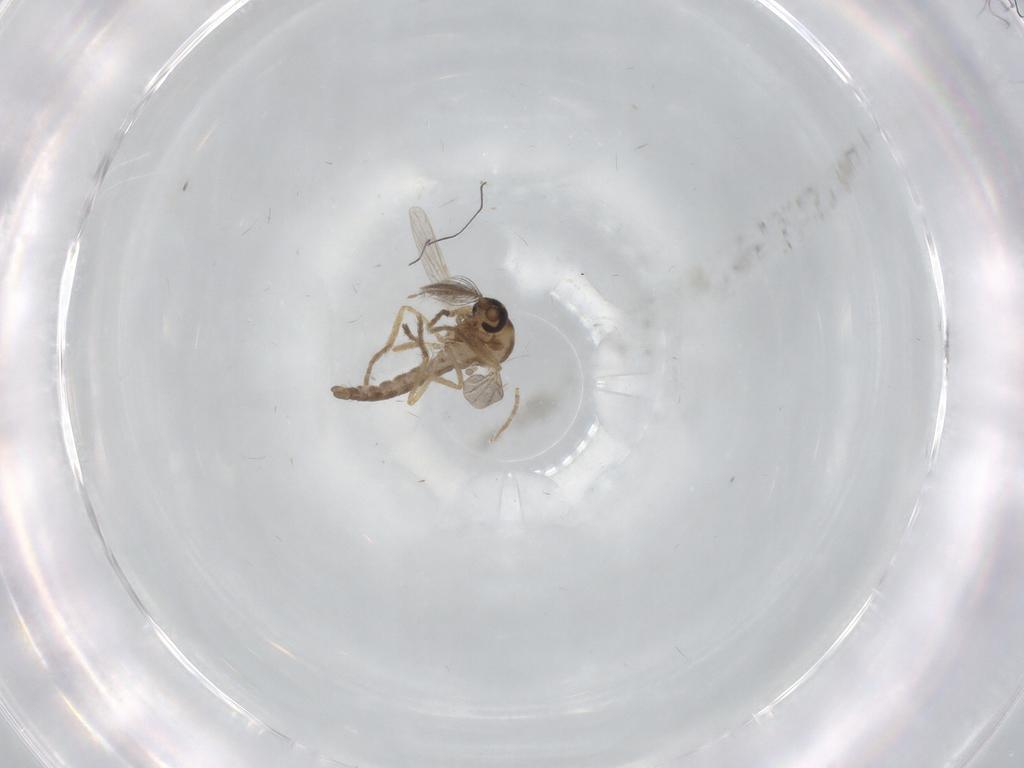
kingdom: Animalia
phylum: Arthropoda
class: Insecta
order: Diptera
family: Ceratopogonidae
